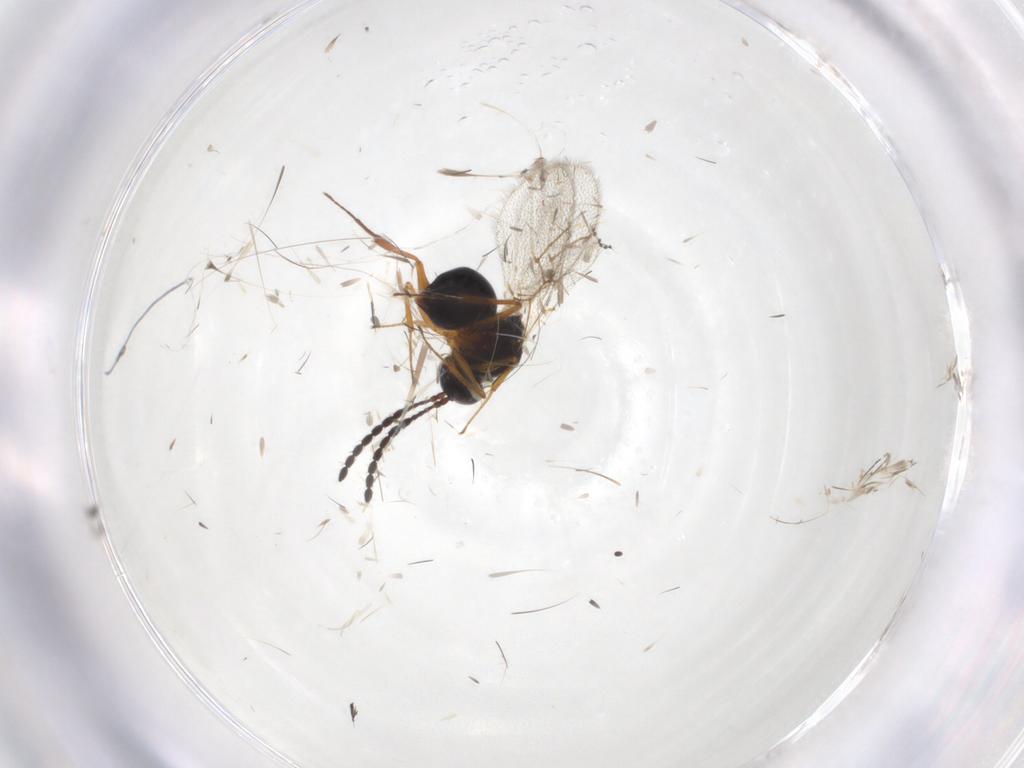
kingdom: Animalia
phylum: Arthropoda
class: Insecta
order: Hymenoptera
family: Figitidae
